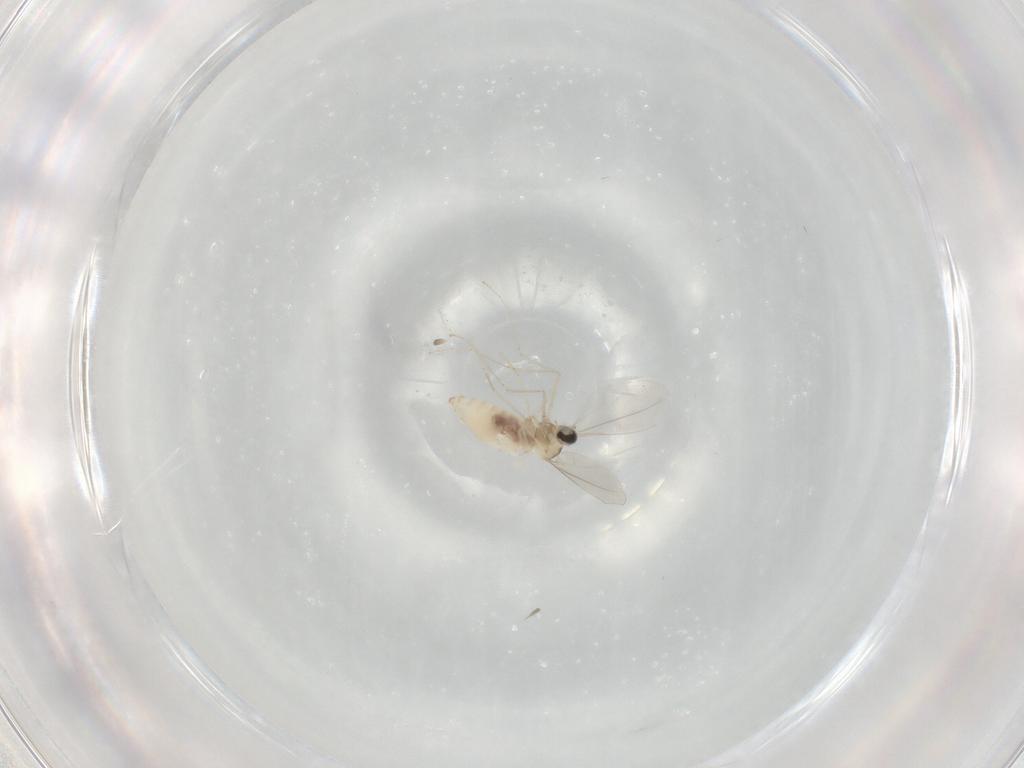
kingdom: Animalia
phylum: Arthropoda
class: Insecta
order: Diptera
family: Cecidomyiidae
